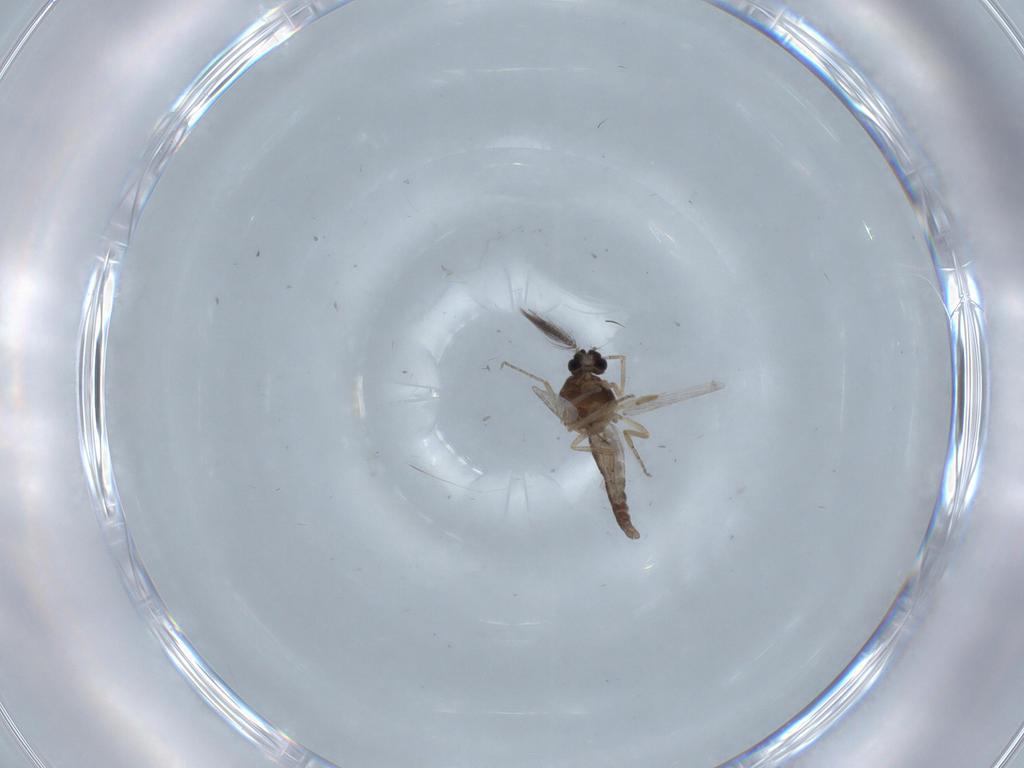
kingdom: Animalia
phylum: Arthropoda
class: Insecta
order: Diptera
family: Ceratopogonidae
